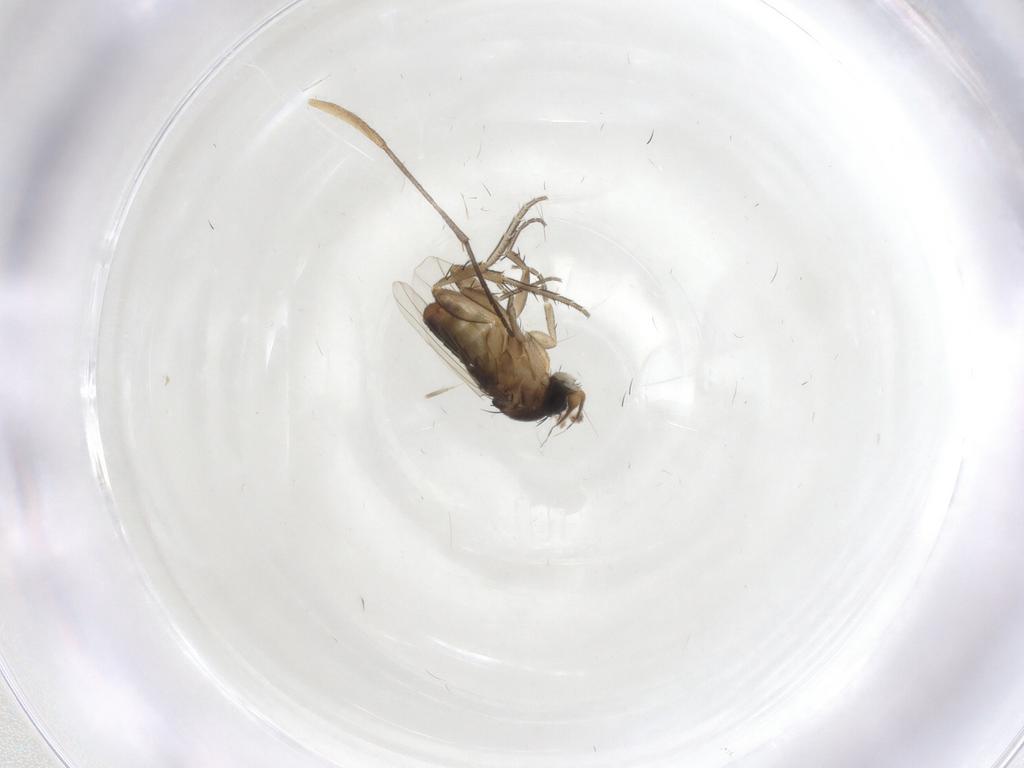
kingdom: Animalia
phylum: Arthropoda
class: Insecta
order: Diptera
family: Phoridae
